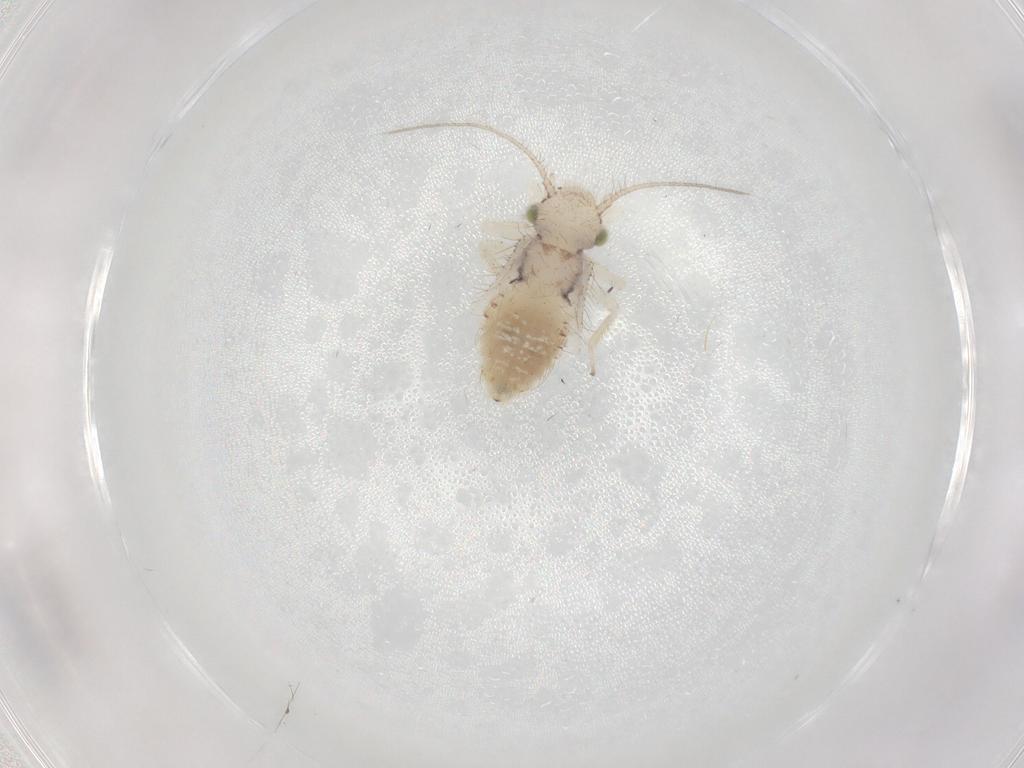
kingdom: Animalia
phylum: Arthropoda
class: Insecta
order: Psocodea
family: Pseudocaeciliidae
